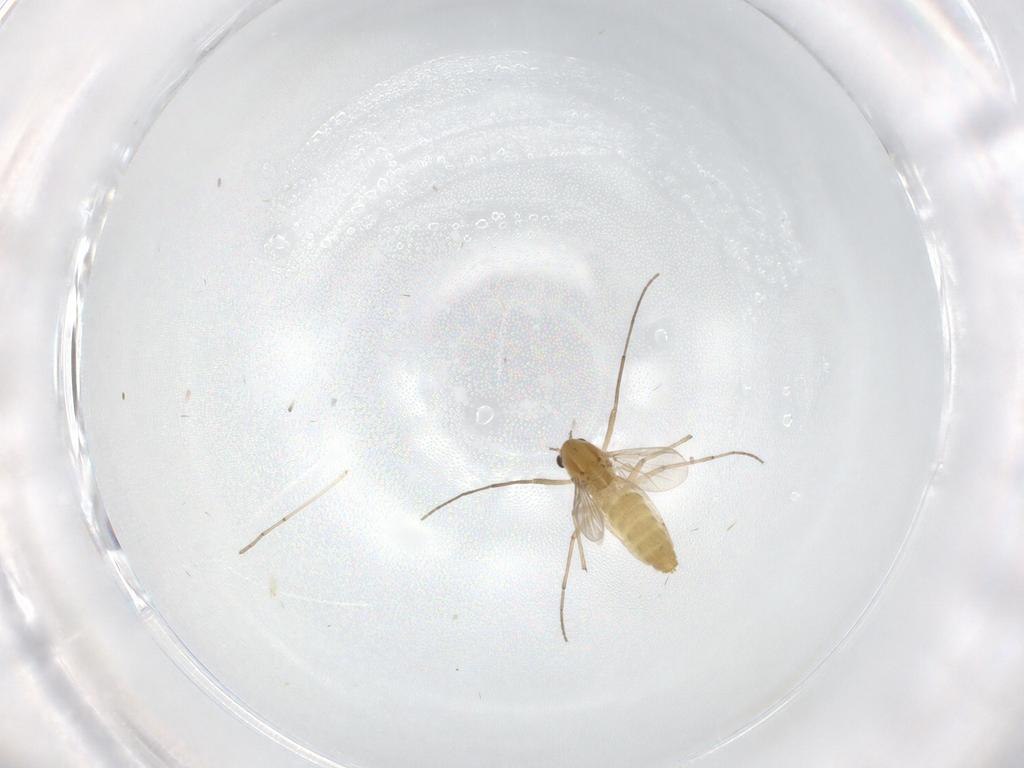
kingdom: Animalia
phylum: Arthropoda
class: Insecta
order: Diptera
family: Chironomidae
